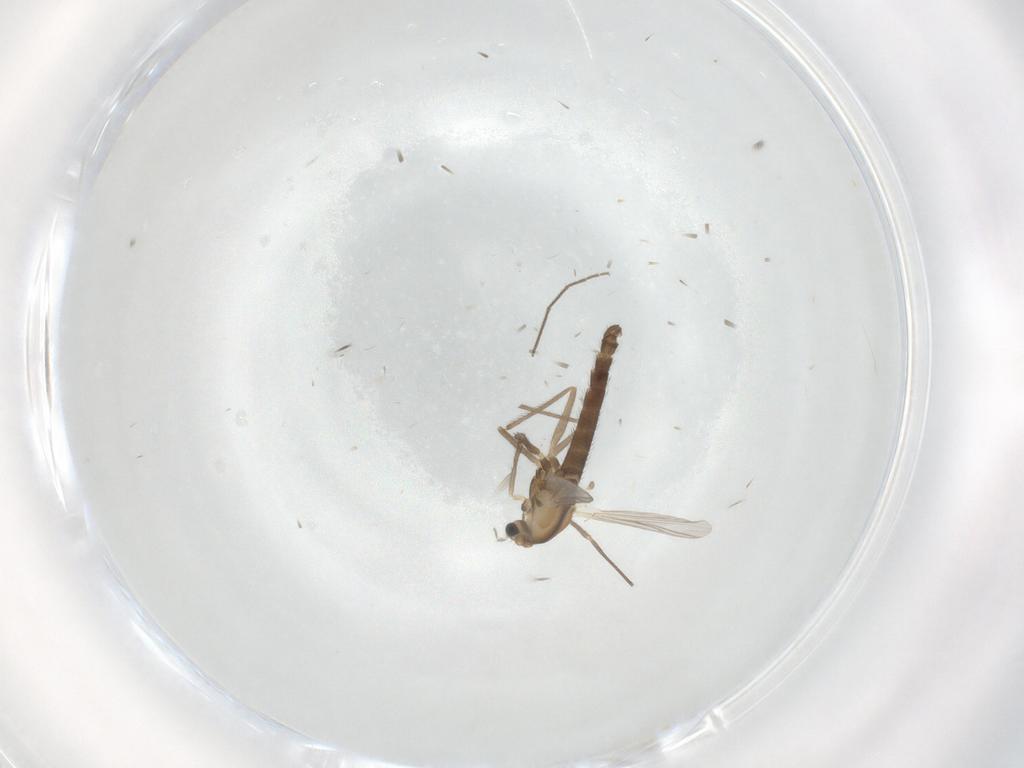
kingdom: Animalia
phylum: Arthropoda
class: Insecta
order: Diptera
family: Chironomidae
